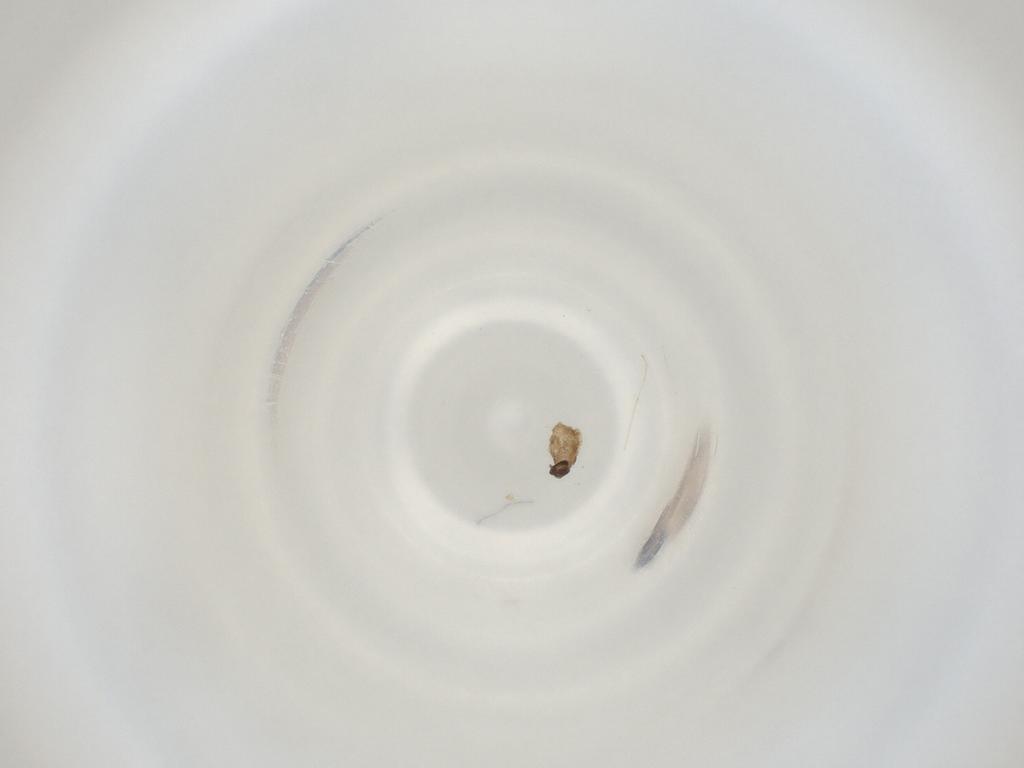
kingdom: Animalia
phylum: Arthropoda
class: Insecta
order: Diptera
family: Cecidomyiidae
